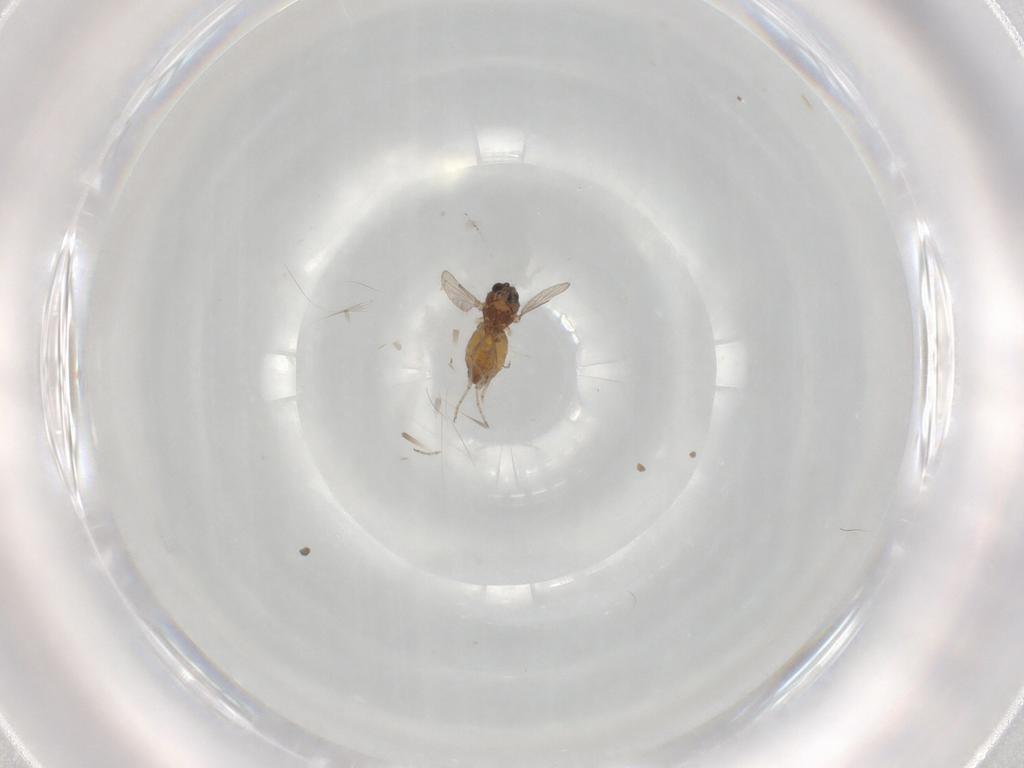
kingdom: Animalia
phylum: Arthropoda
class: Insecta
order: Diptera
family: Ceratopogonidae
